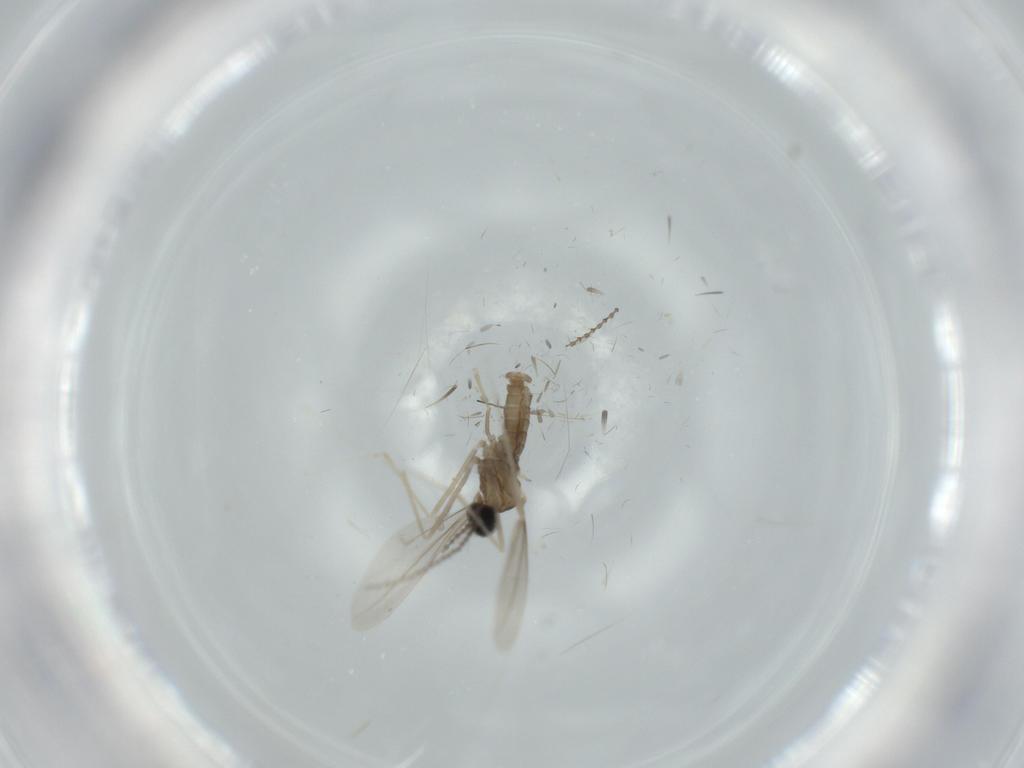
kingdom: Animalia
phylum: Arthropoda
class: Insecta
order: Diptera
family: Cecidomyiidae
